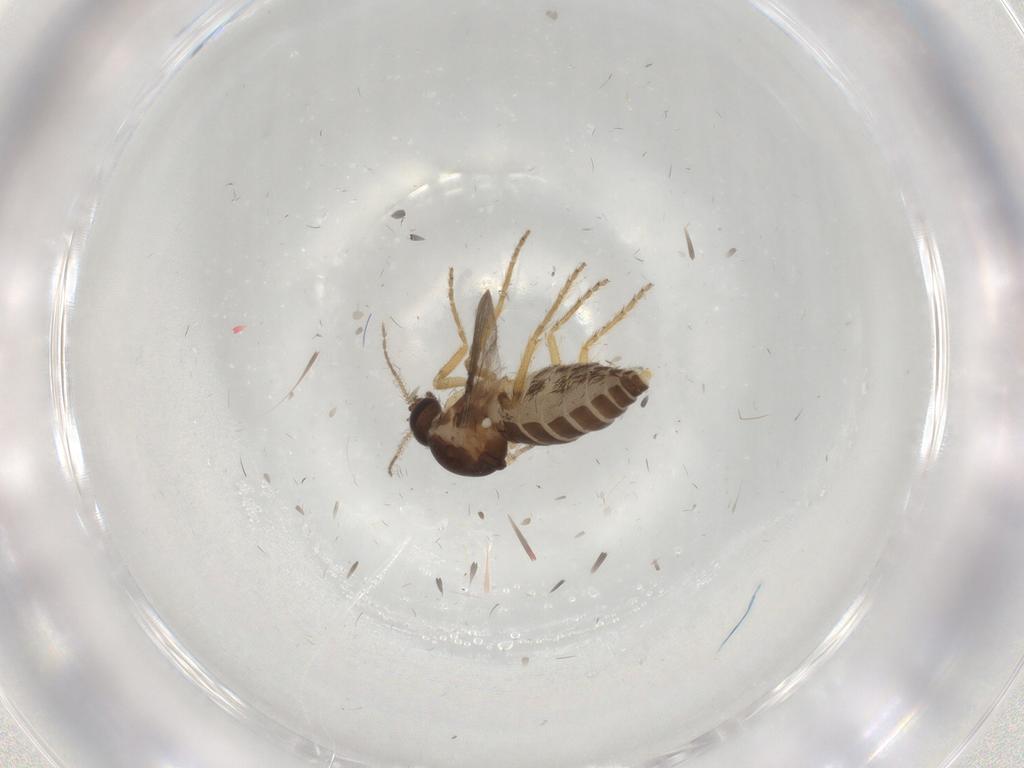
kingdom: Animalia
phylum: Arthropoda
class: Insecta
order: Diptera
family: Ceratopogonidae
